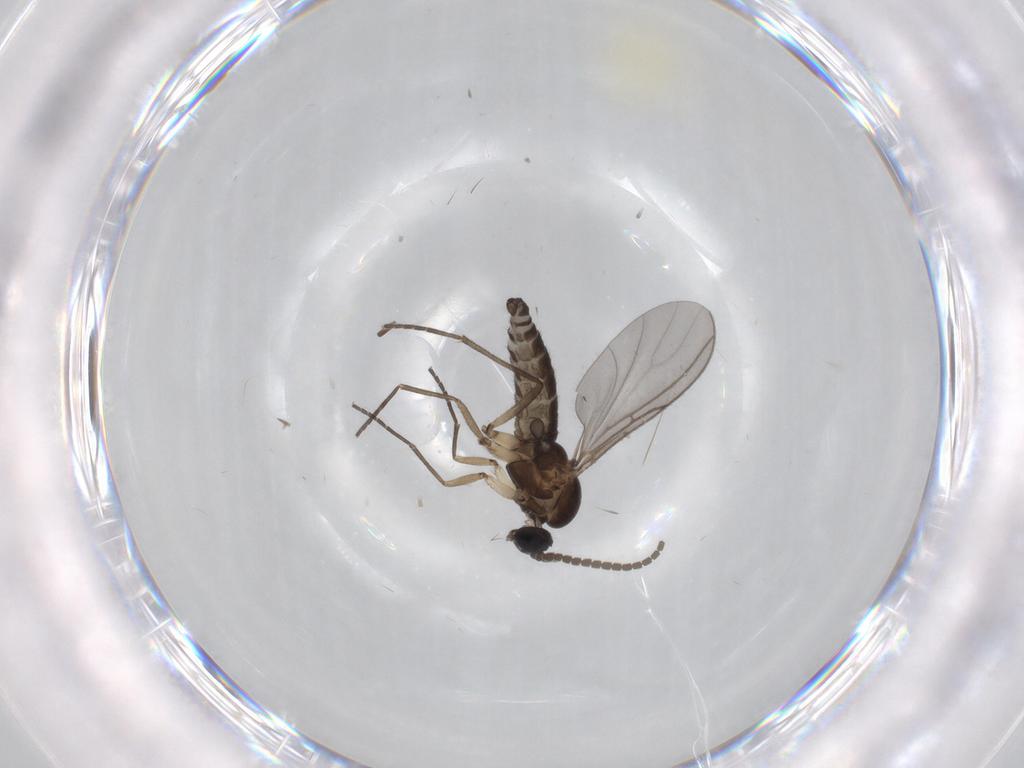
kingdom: Animalia
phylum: Arthropoda
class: Insecta
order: Diptera
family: Sciaridae
